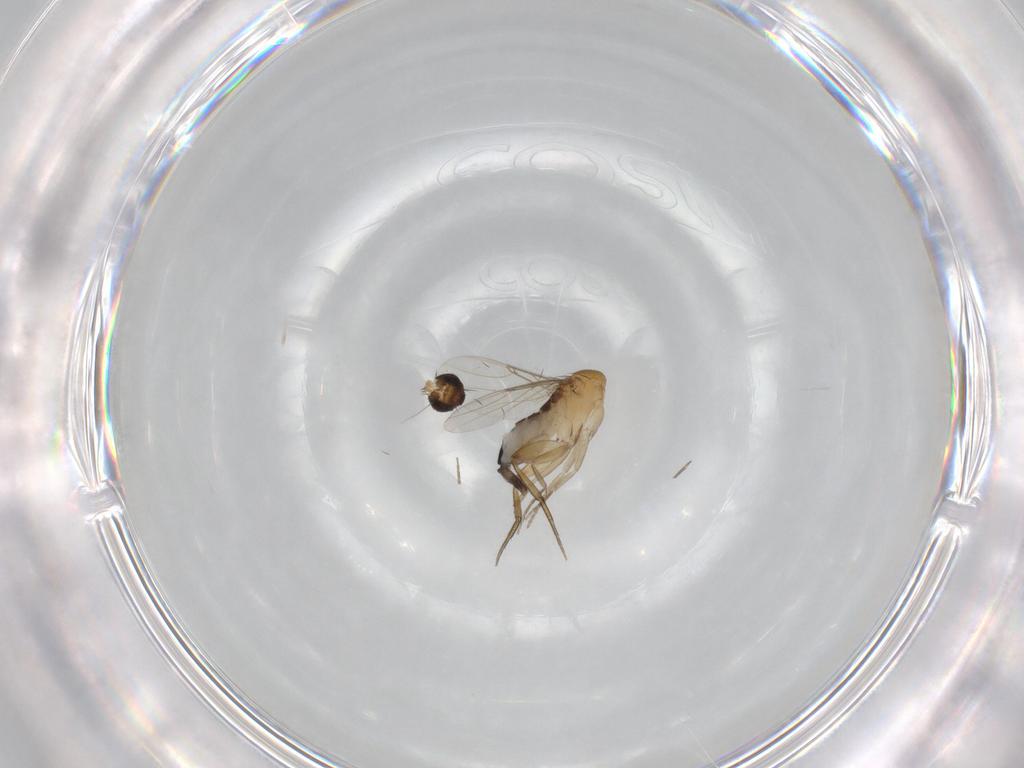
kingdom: Animalia
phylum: Arthropoda
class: Insecta
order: Diptera
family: Phoridae
